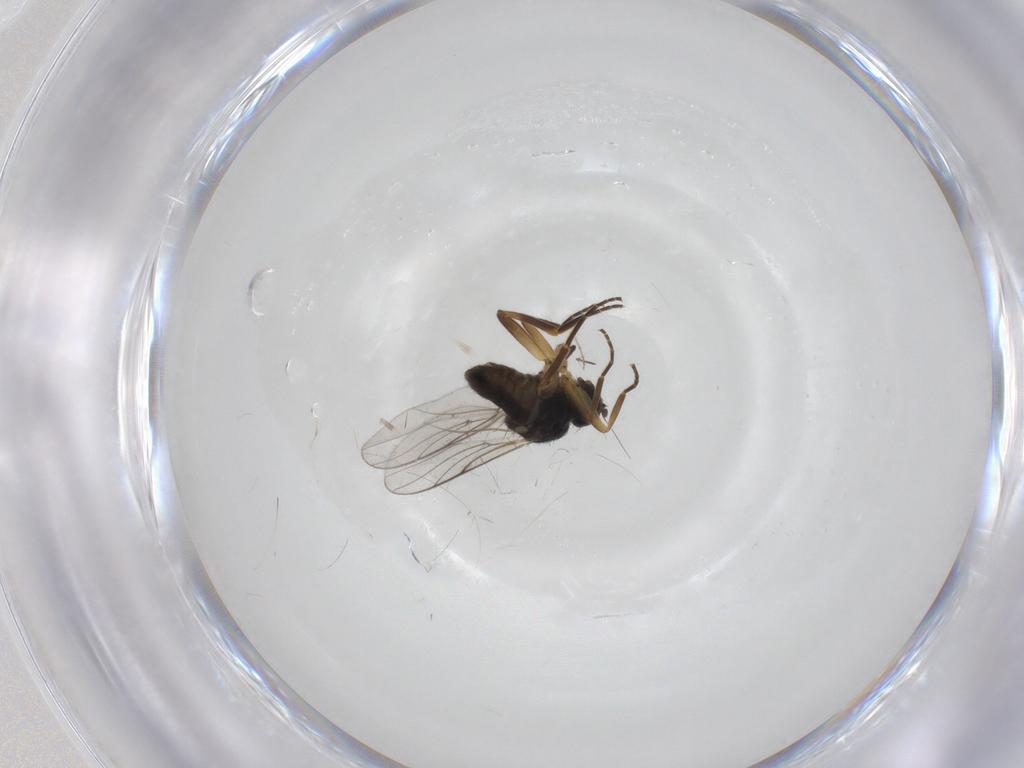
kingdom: Animalia
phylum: Arthropoda
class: Insecta
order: Diptera
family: Hybotidae
